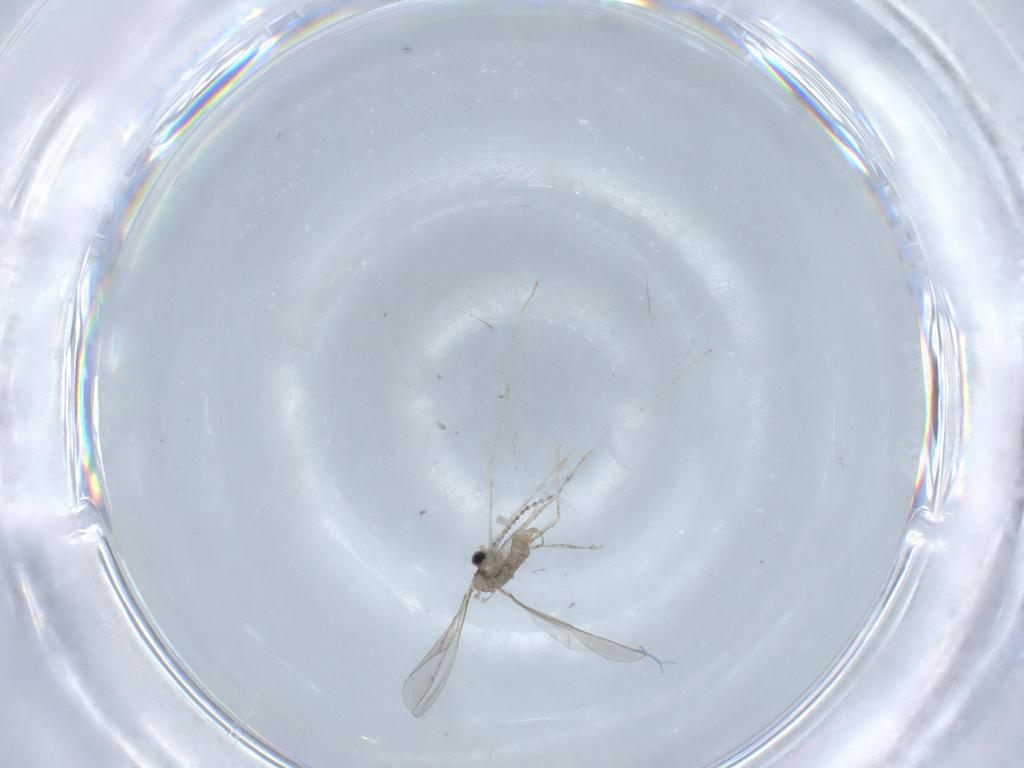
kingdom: Animalia
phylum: Arthropoda
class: Insecta
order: Diptera
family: Cecidomyiidae
